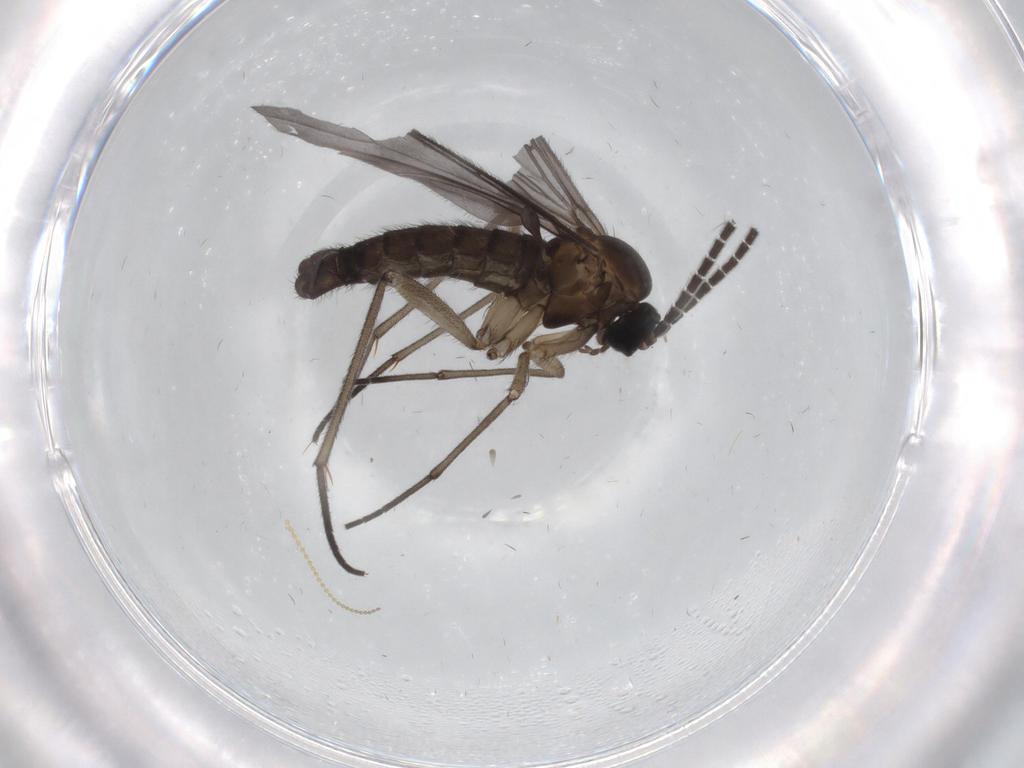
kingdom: Animalia
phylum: Arthropoda
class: Insecta
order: Diptera
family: Sciaridae
